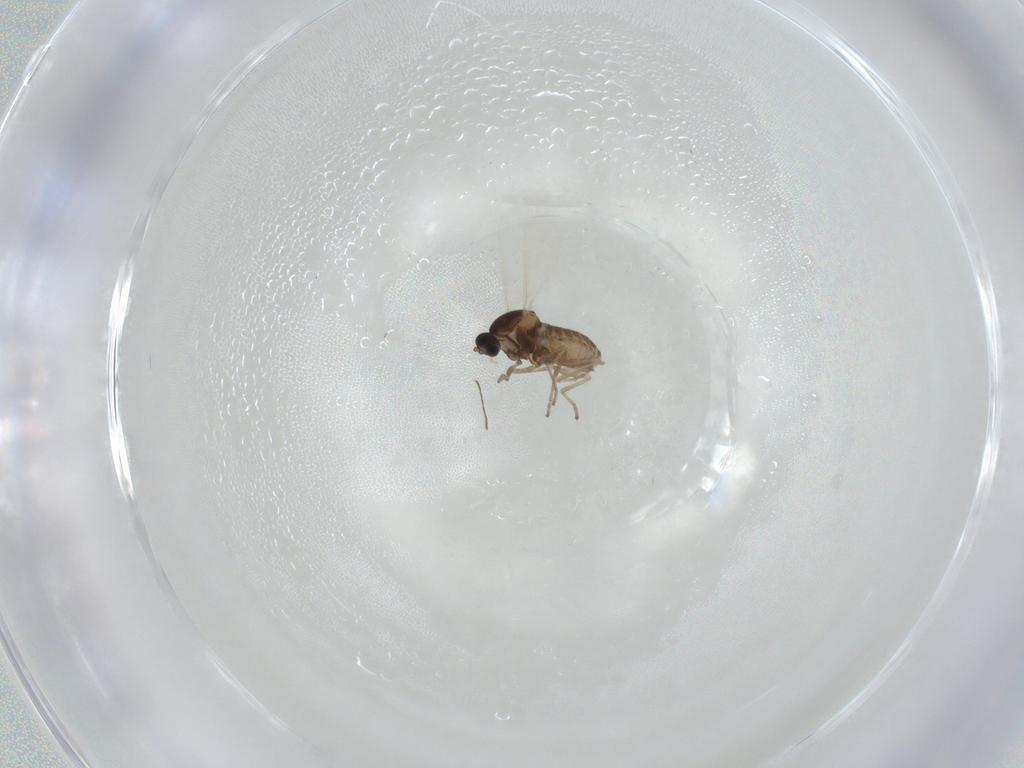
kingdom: Animalia
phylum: Arthropoda
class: Insecta
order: Diptera
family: Cecidomyiidae
